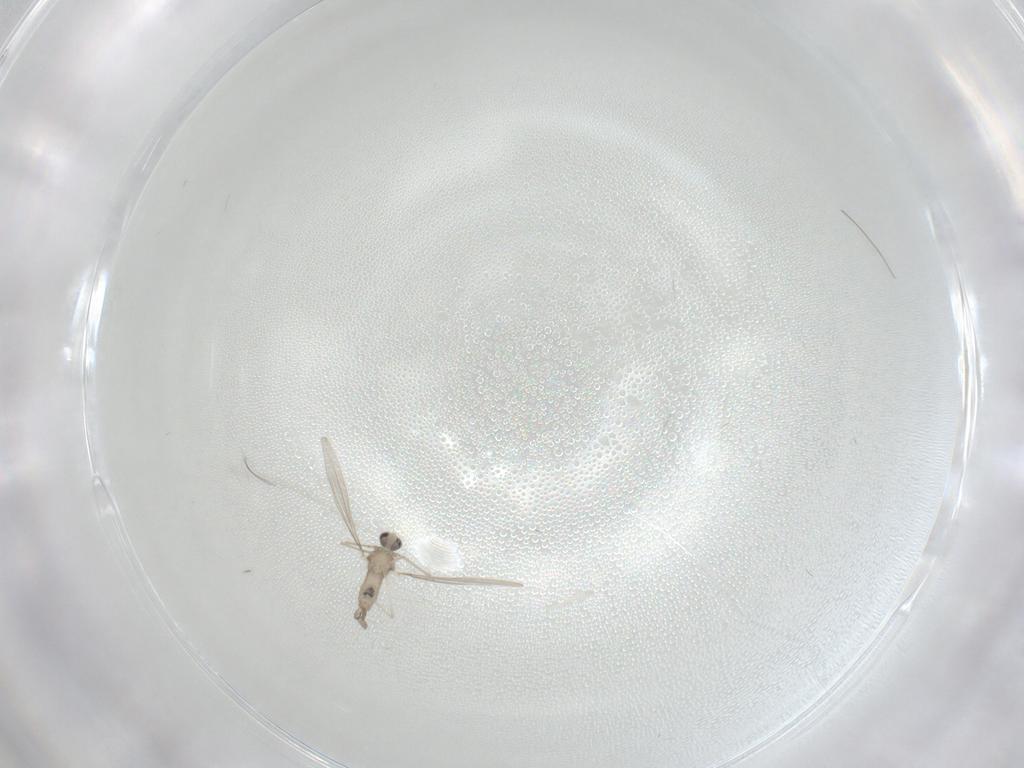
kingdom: Animalia
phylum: Arthropoda
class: Insecta
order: Diptera
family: Cecidomyiidae
